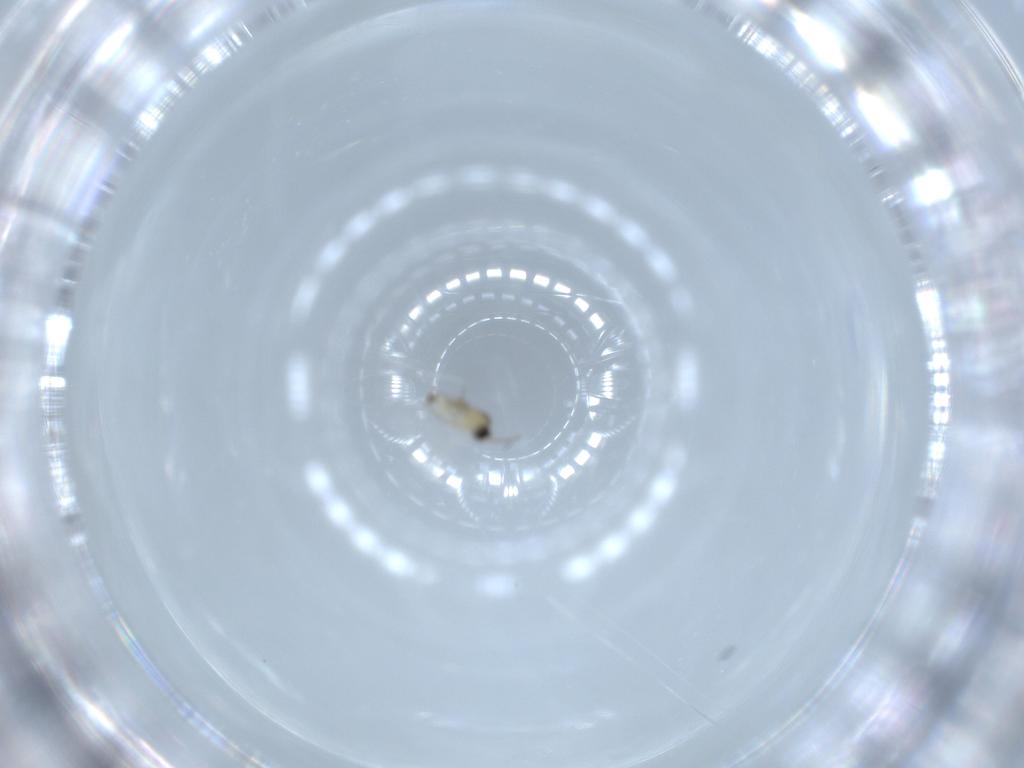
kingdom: Animalia
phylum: Arthropoda
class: Insecta
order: Diptera
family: Cecidomyiidae
